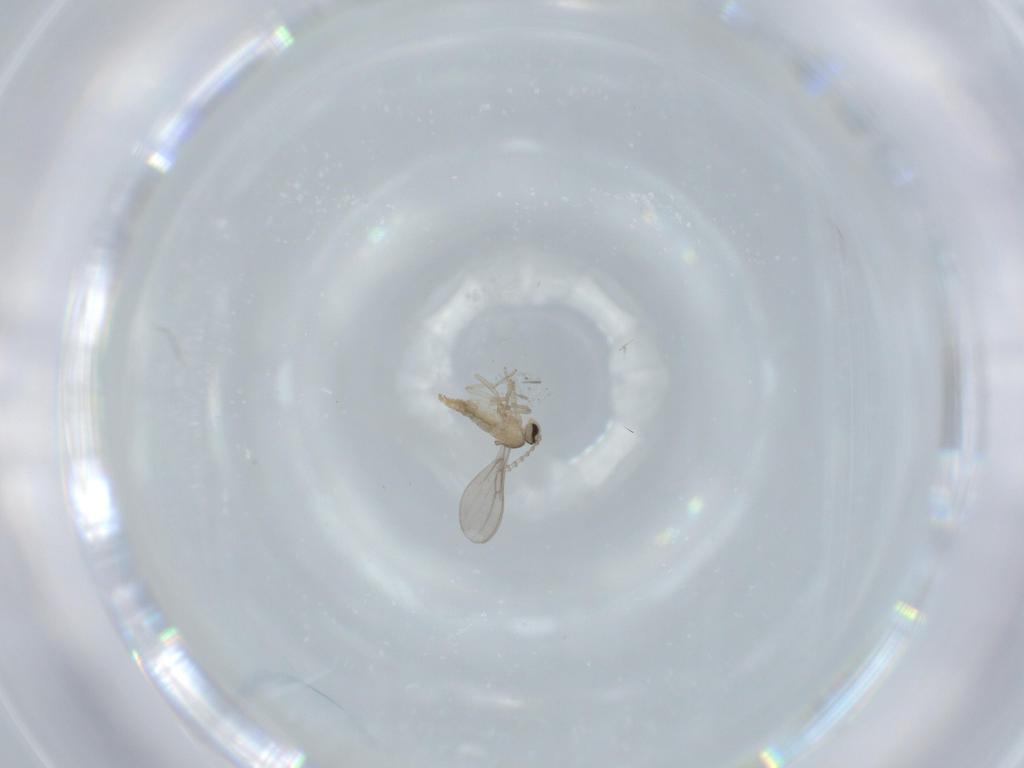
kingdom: Animalia
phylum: Arthropoda
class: Insecta
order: Diptera
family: Cecidomyiidae
